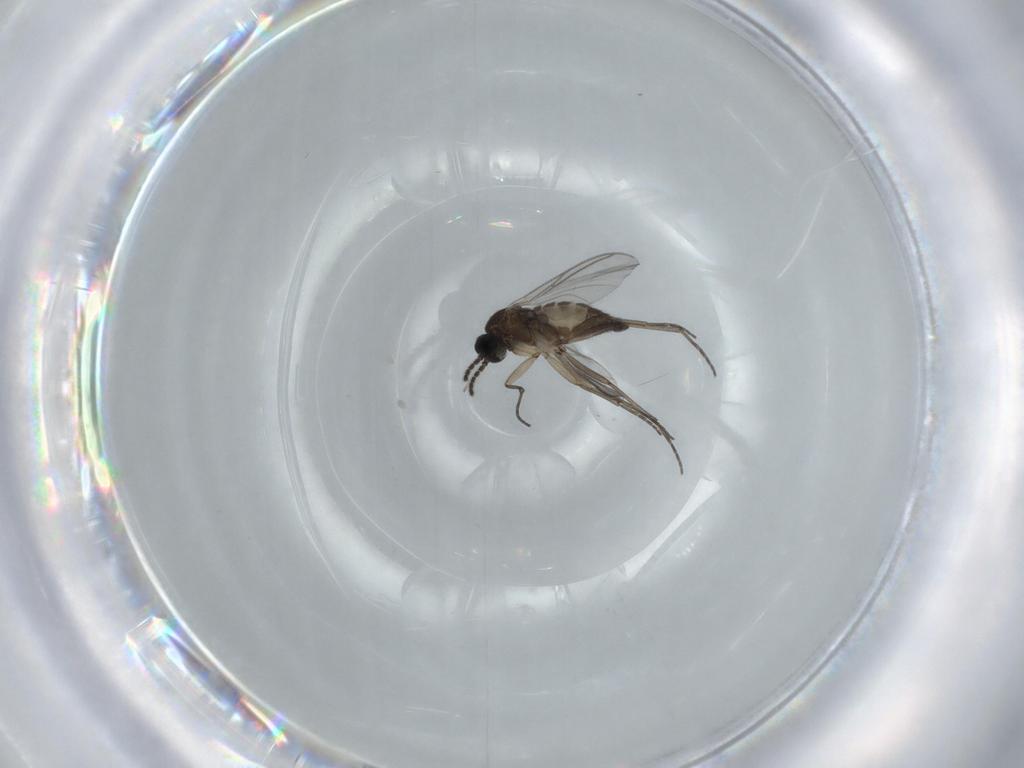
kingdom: Animalia
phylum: Arthropoda
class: Insecta
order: Diptera
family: Sciaridae
